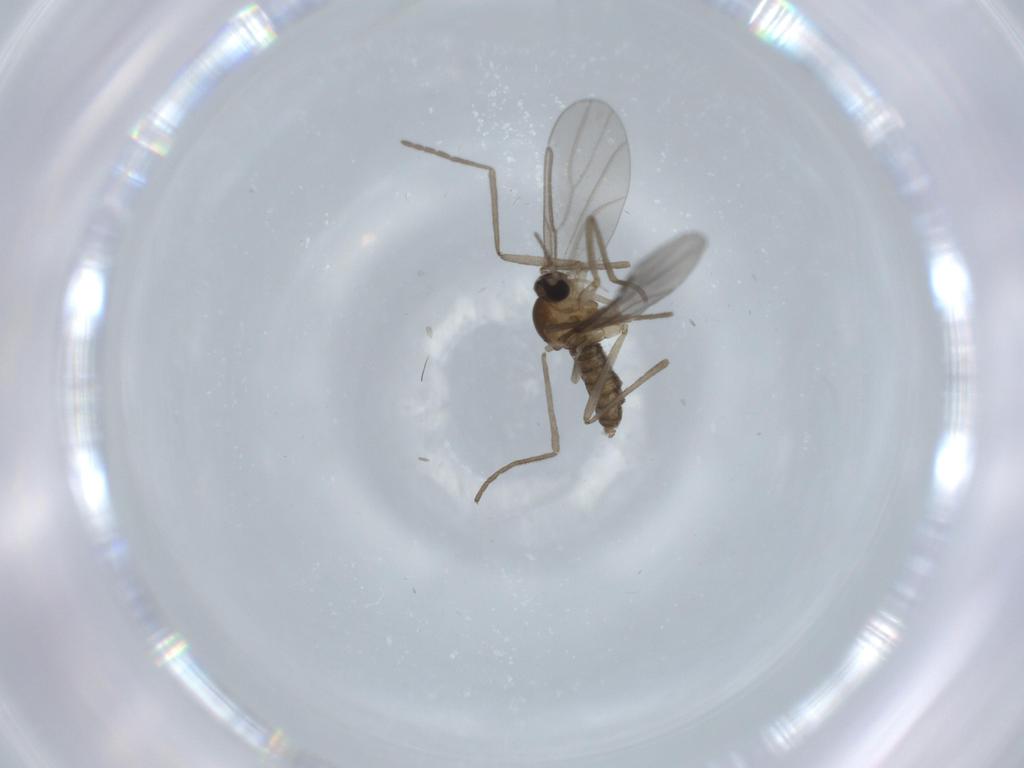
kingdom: Animalia
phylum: Arthropoda
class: Insecta
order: Diptera
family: Cecidomyiidae
